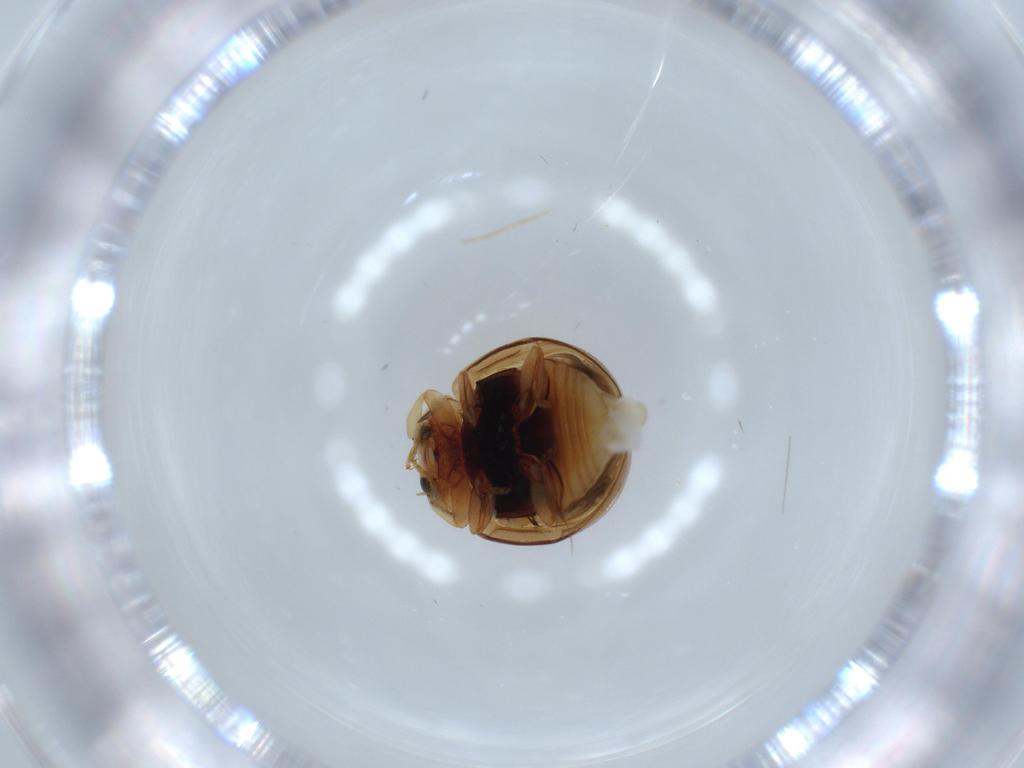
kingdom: Animalia
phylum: Arthropoda
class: Insecta
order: Coleoptera
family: Coccinellidae
